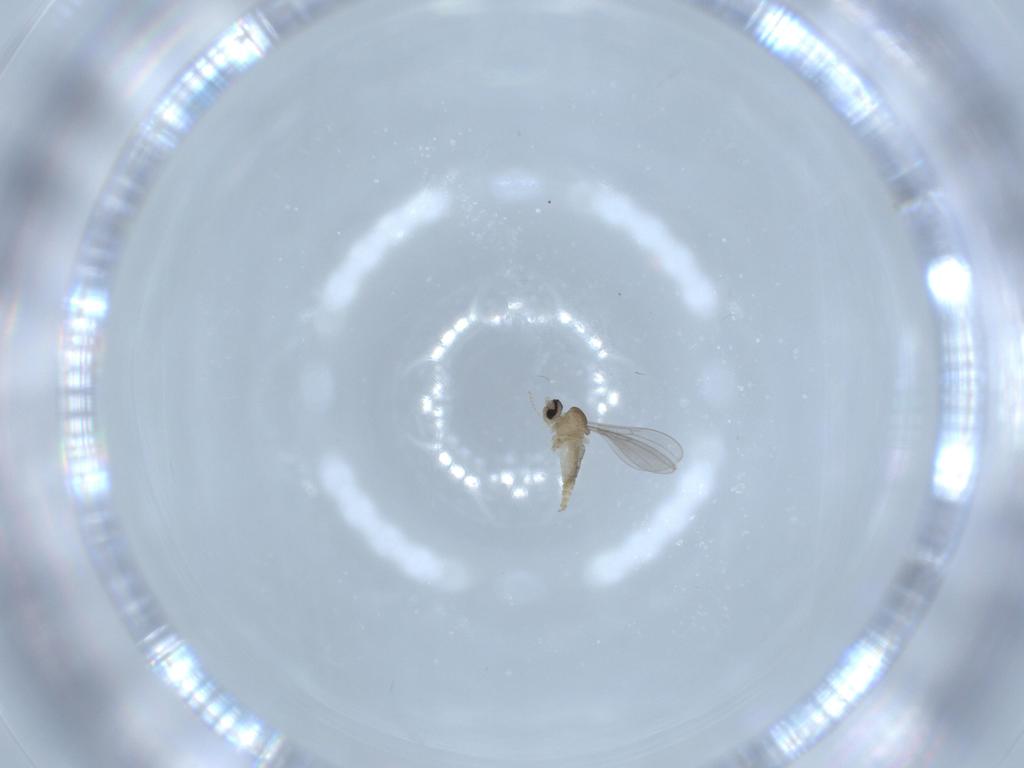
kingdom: Animalia
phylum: Arthropoda
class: Insecta
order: Diptera
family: Cecidomyiidae
